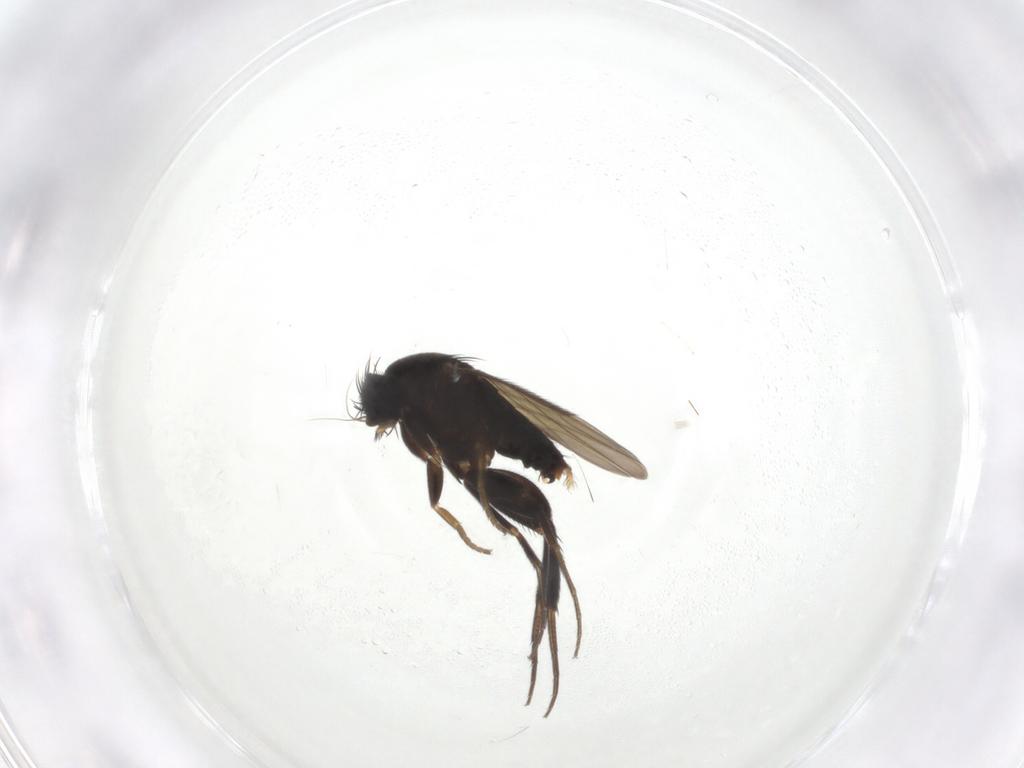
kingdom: Animalia
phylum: Arthropoda
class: Insecta
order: Diptera
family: Phoridae
